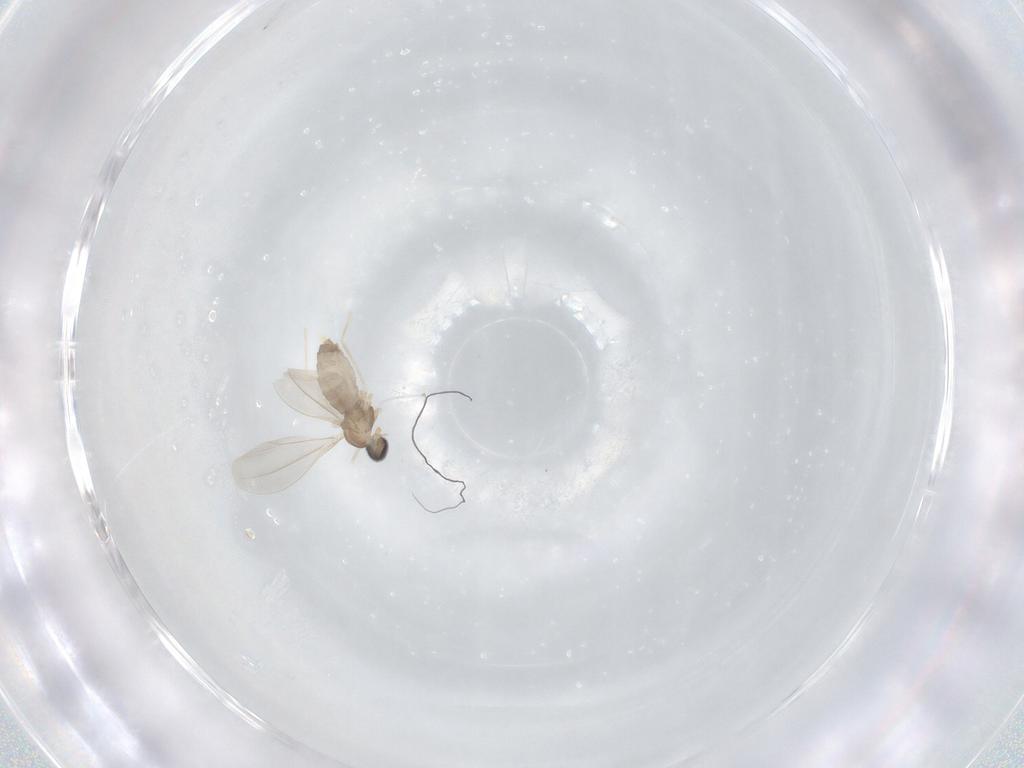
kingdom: Animalia
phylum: Arthropoda
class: Insecta
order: Diptera
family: Cecidomyiidae
